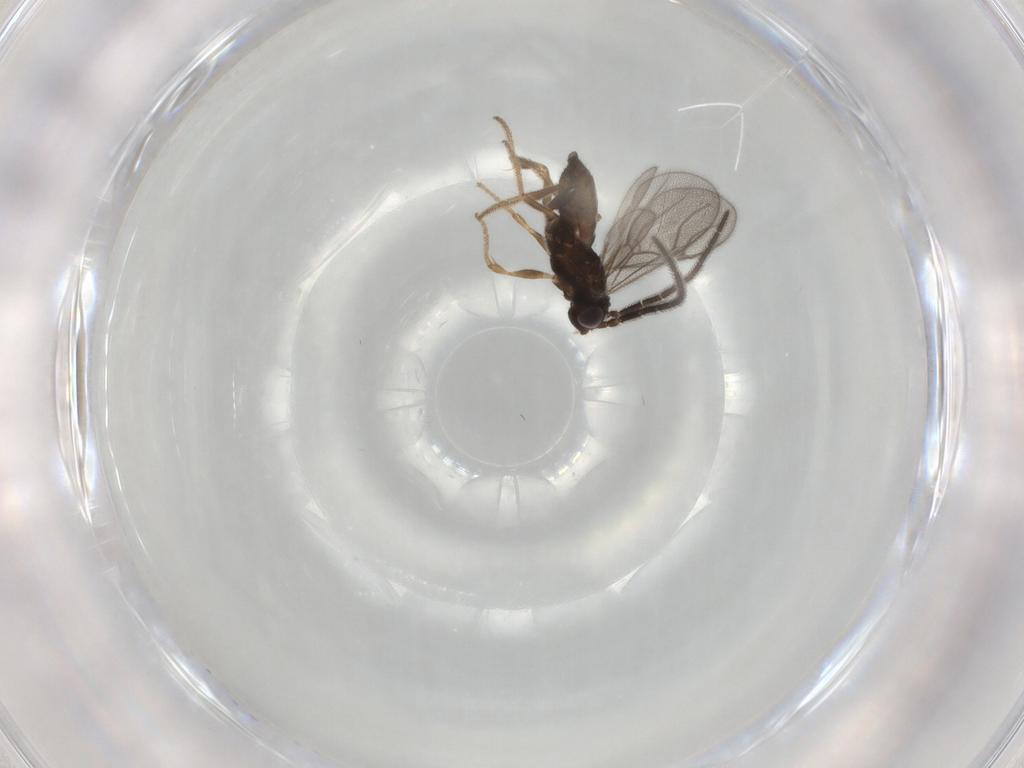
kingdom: Animalia
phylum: Arthropoda
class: Insecta
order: Hymenoptera
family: Dryinidae
